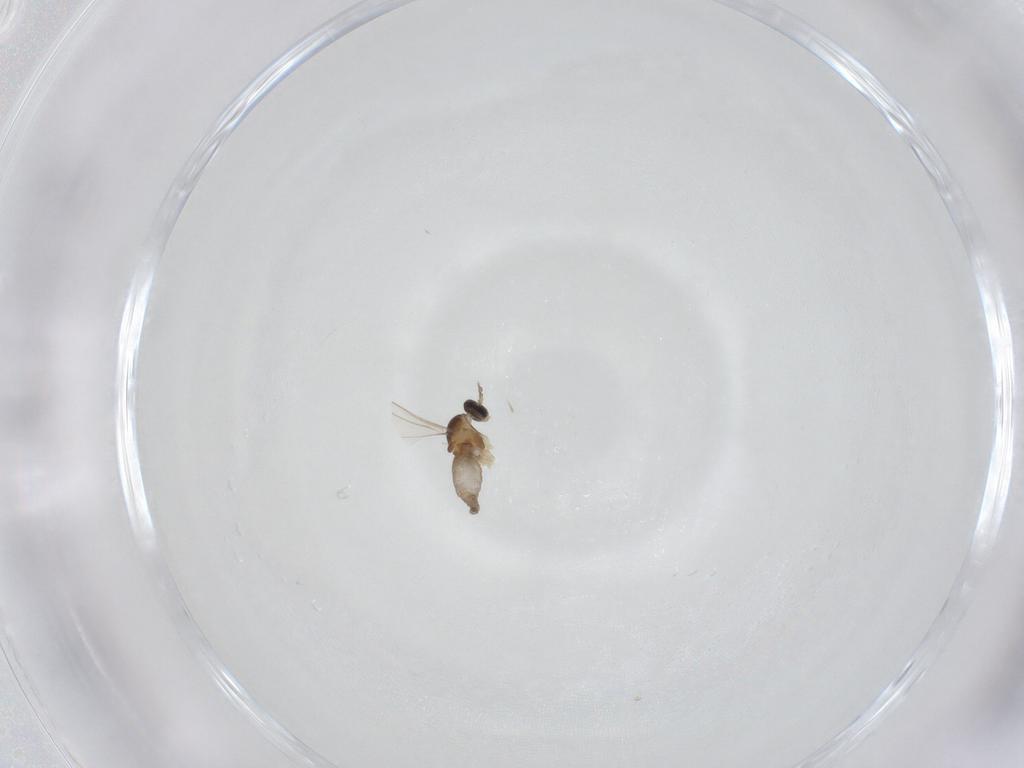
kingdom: Animalia
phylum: Arthropoda
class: Insecta
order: Diptera
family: Cecidomyiidae
